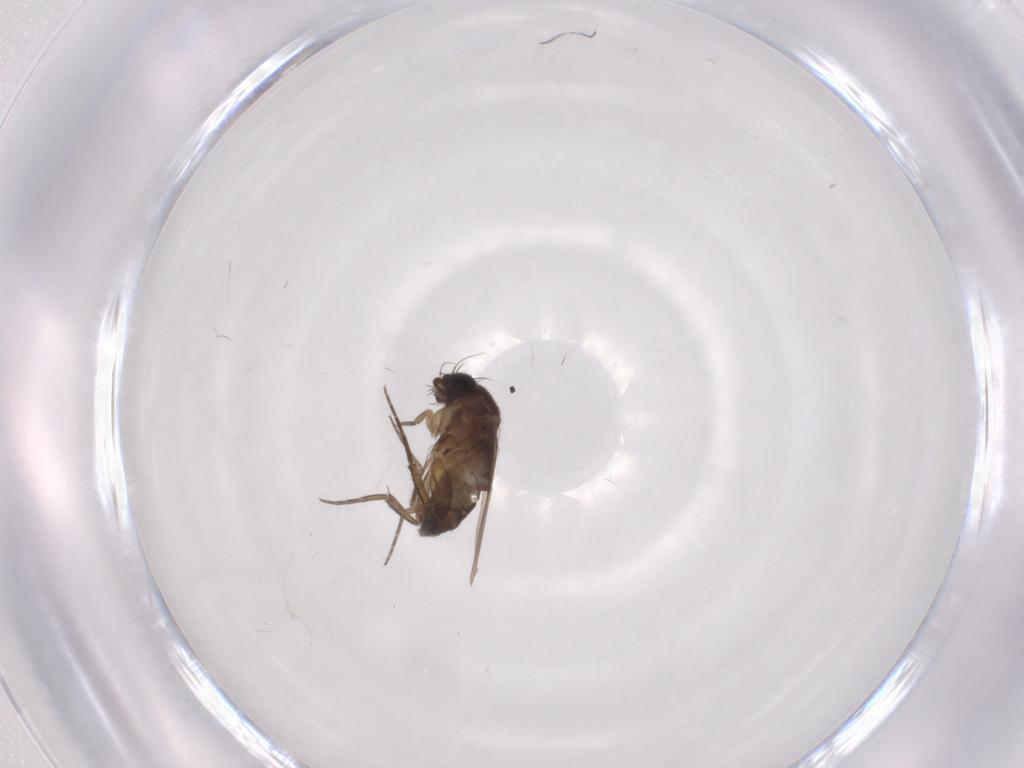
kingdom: Animalia
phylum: Arthropoda
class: Insecta
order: Diptera
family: Phoridae
